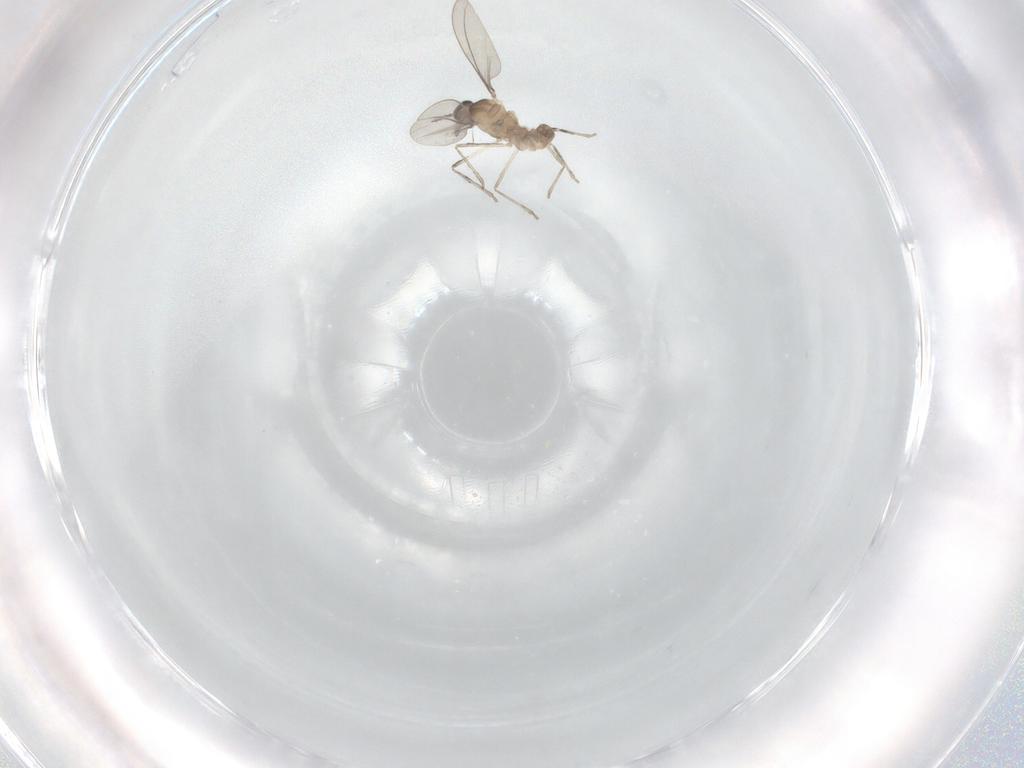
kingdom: Animalia
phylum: Arthropoda
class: Insecta
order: Diptera
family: Cecidomyiidae
